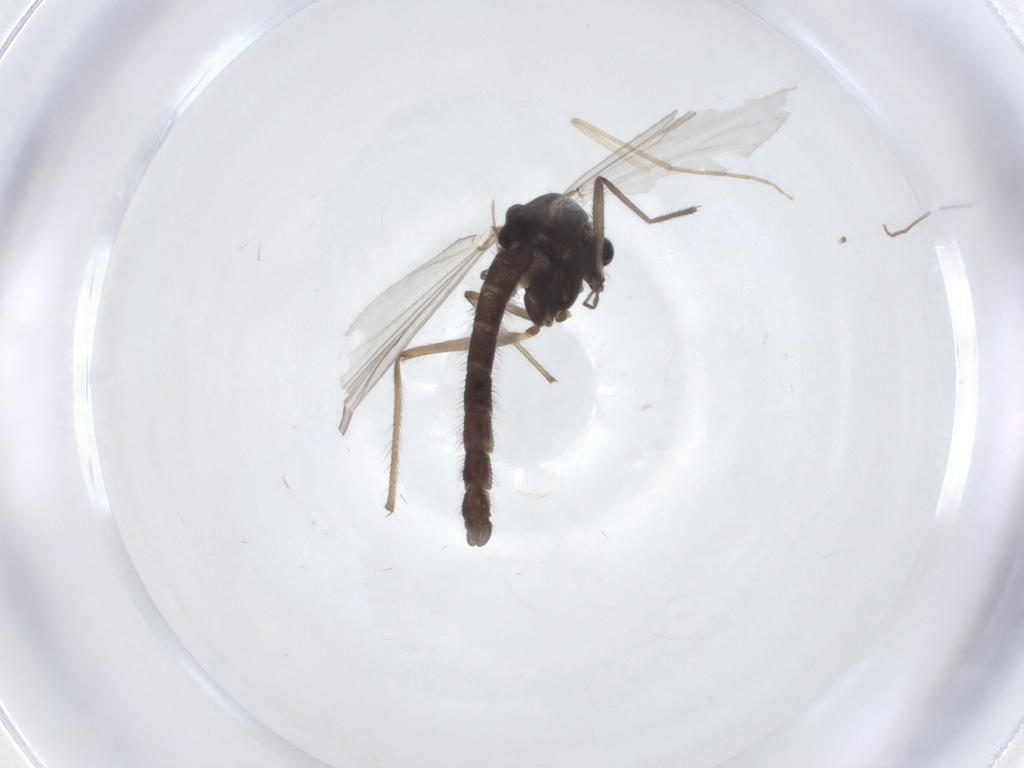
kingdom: Animalia
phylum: Arthropoda
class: Insecta
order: Diptera
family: Chironomidae
